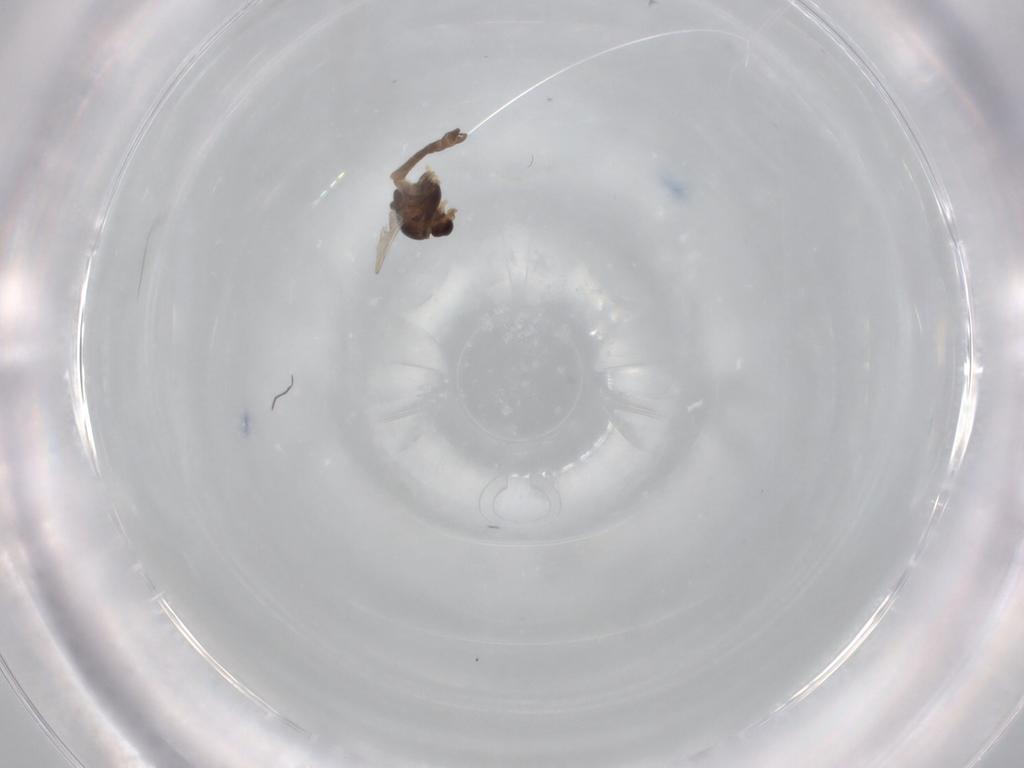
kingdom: Animalia
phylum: Arthropoda
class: Insecta
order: Diptera
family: Chironomidae
